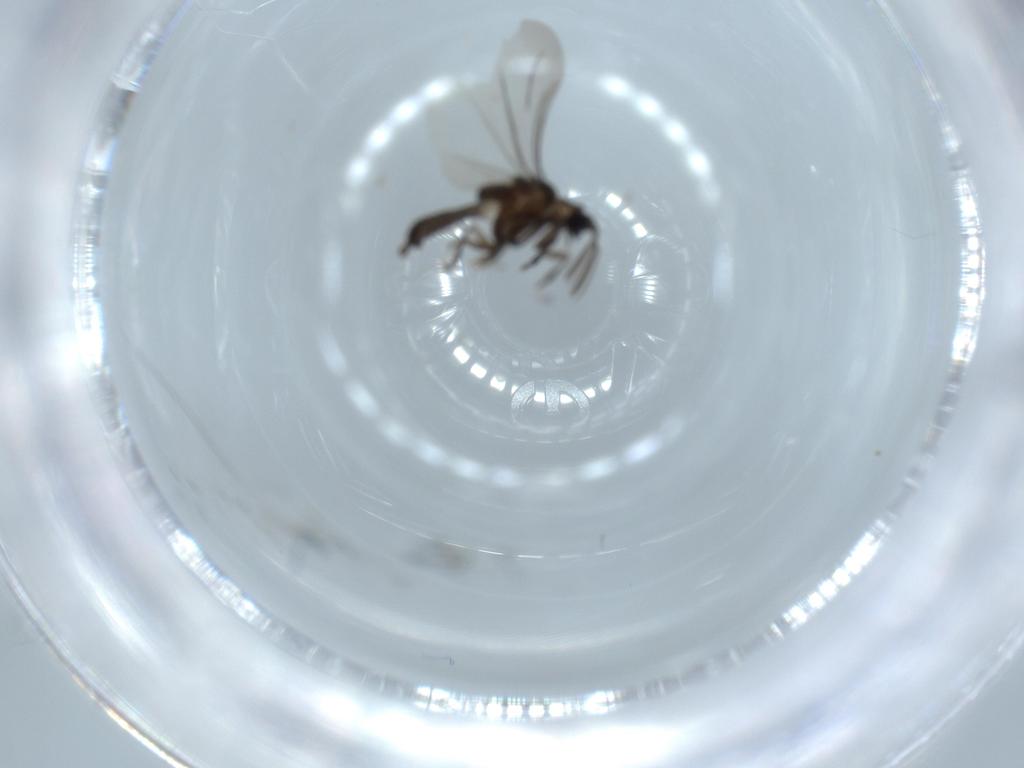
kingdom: Animalia
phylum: Arthropoda
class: Insecta
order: Strepsiptera
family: Elenchidae
